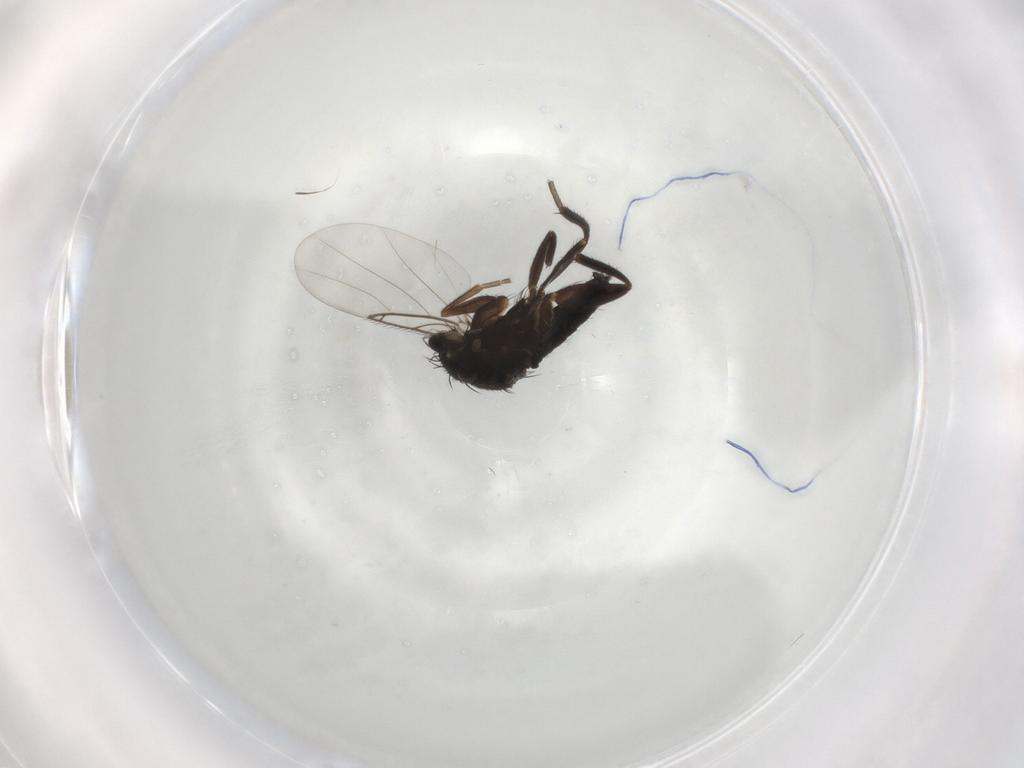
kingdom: Animalia
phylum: Arthropoda
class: Insecta
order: Diptera
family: Phoridae
